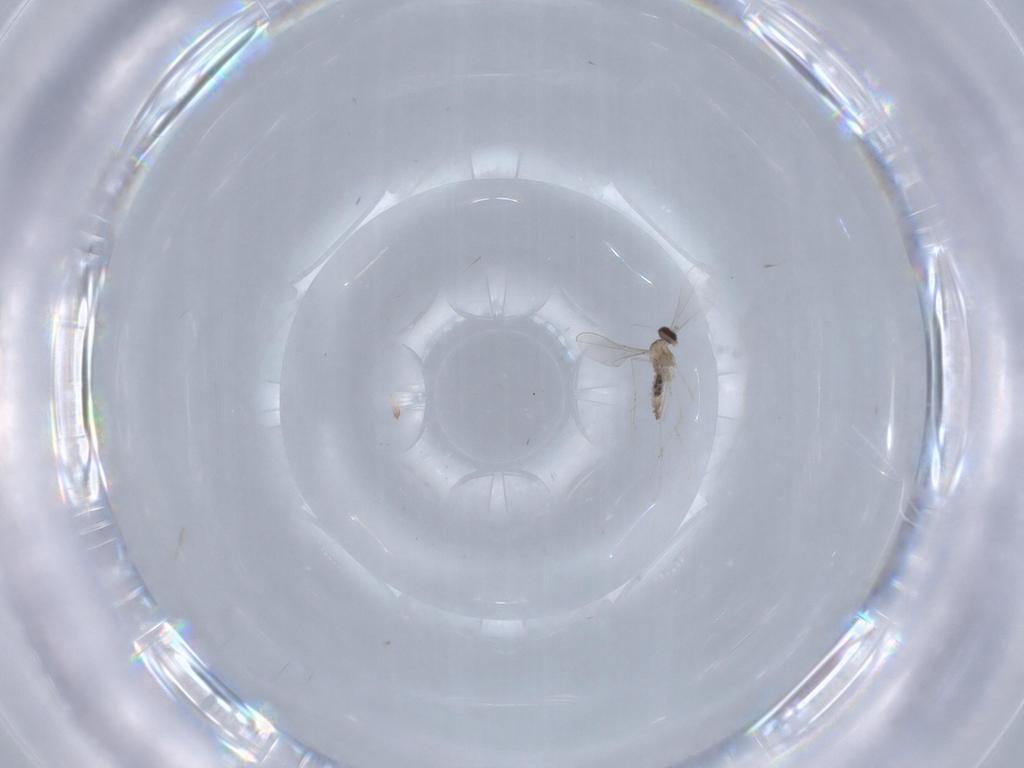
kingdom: Animalia
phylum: Arthropoda
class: Insecta
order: Diptera
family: Cecidomyiidae
